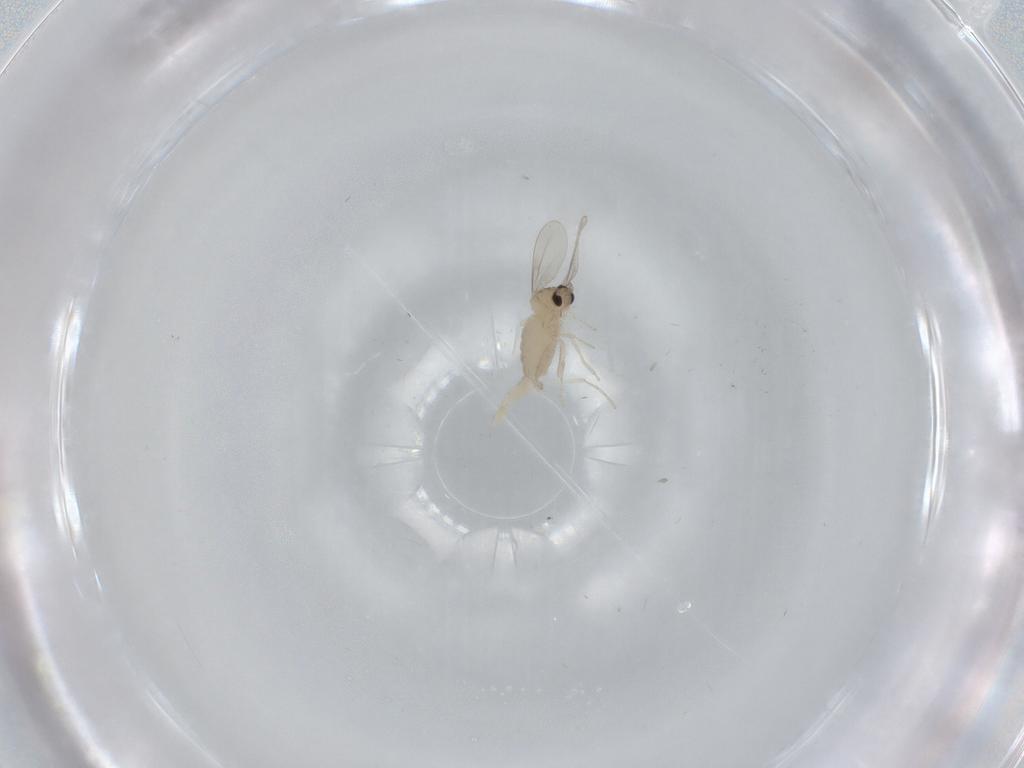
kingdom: Animalia
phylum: Arthropoda
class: Insecta
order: Diptera
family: Cecidomyiidae
